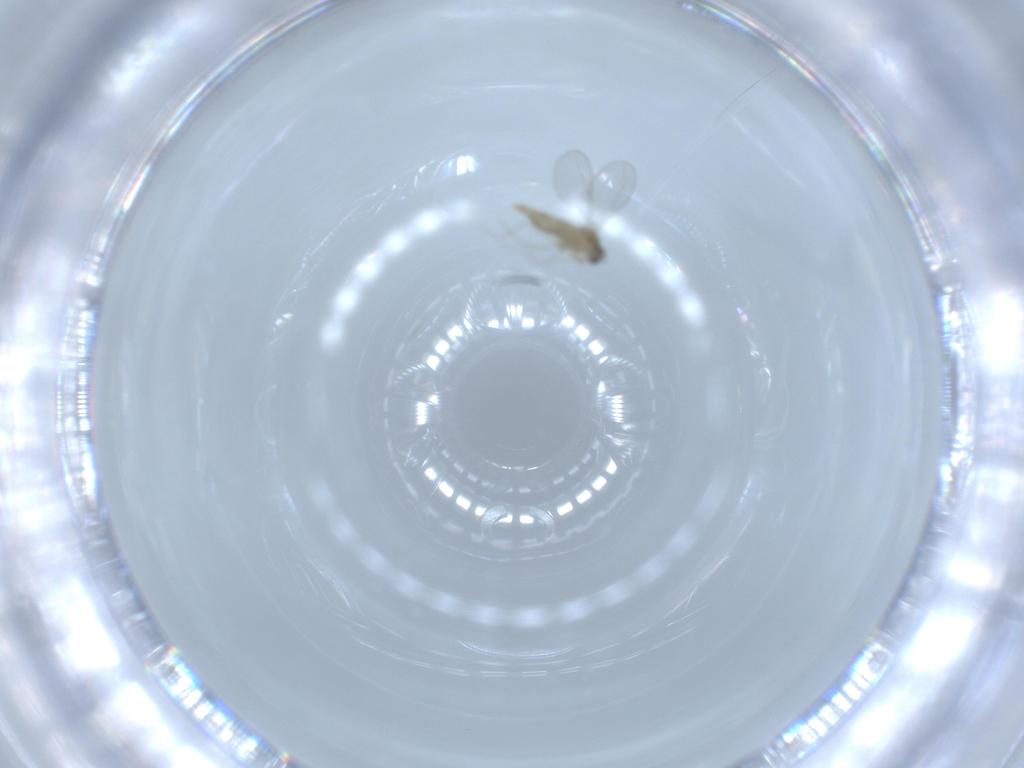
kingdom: Animalia
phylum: Arthropoda
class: Insecta
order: Diptera
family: Cecidomyiidae
